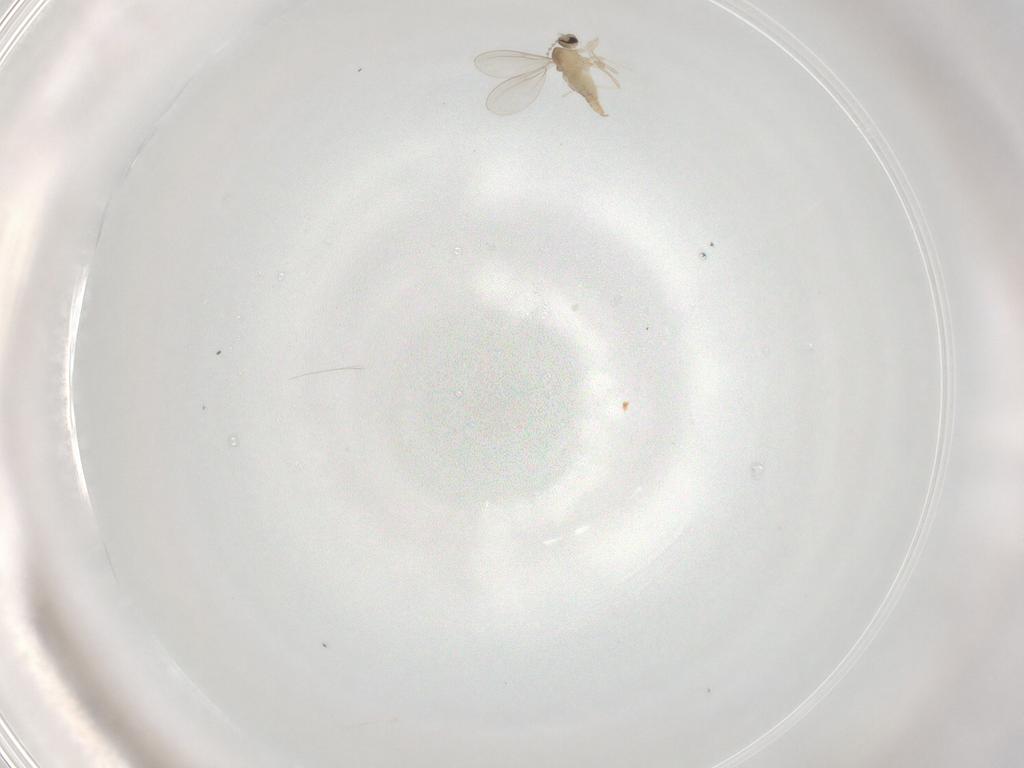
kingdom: Animalia
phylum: Arthropoda
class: Insecta
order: Diptera
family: Cecidomyiidae
